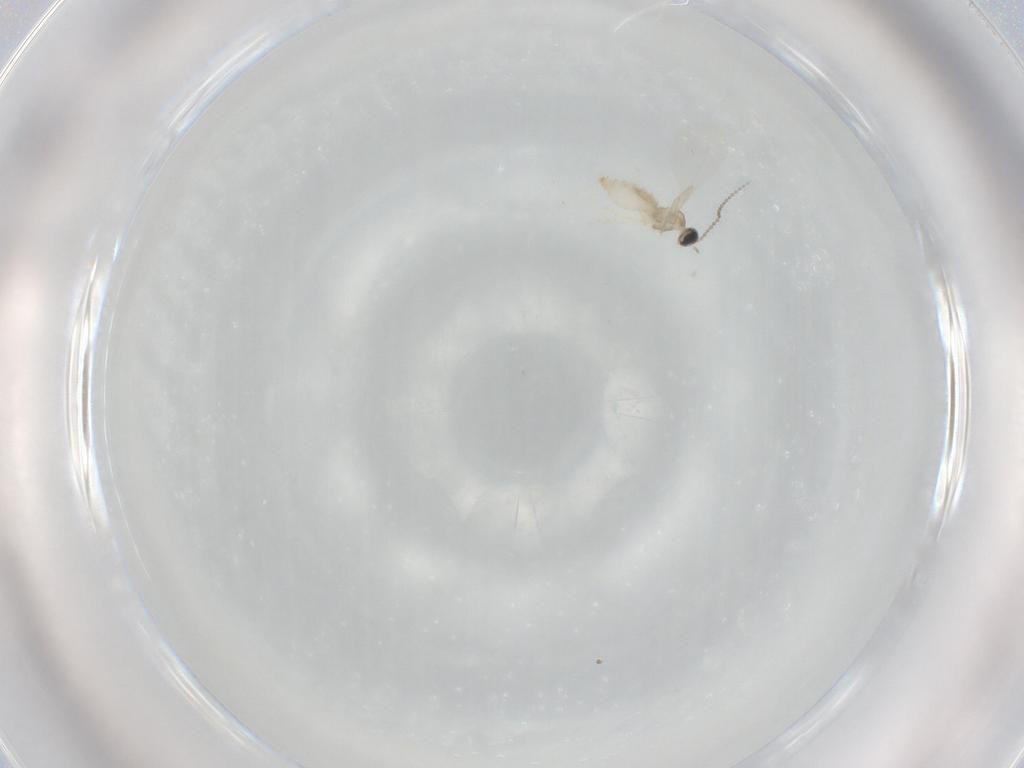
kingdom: Animalia
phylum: Arthropoda
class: Insecta
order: Diptera
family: Cecidomyiidae
